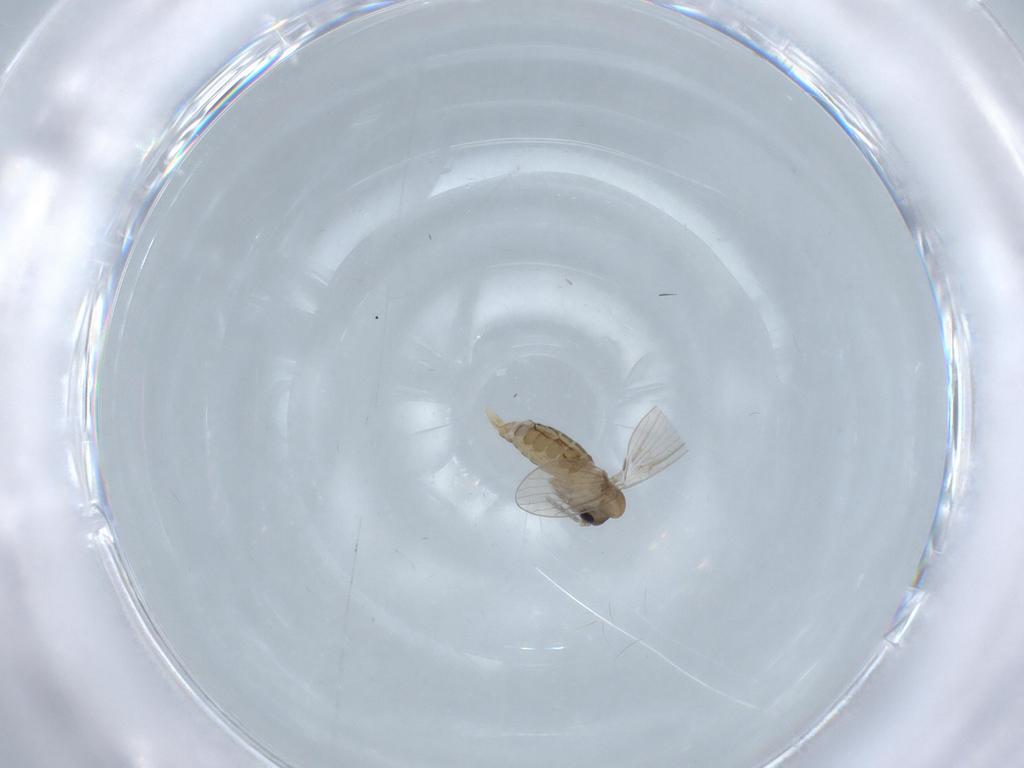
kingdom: Animalia
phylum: Arthropoda
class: Insecta
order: Diptera
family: Psychodidae
